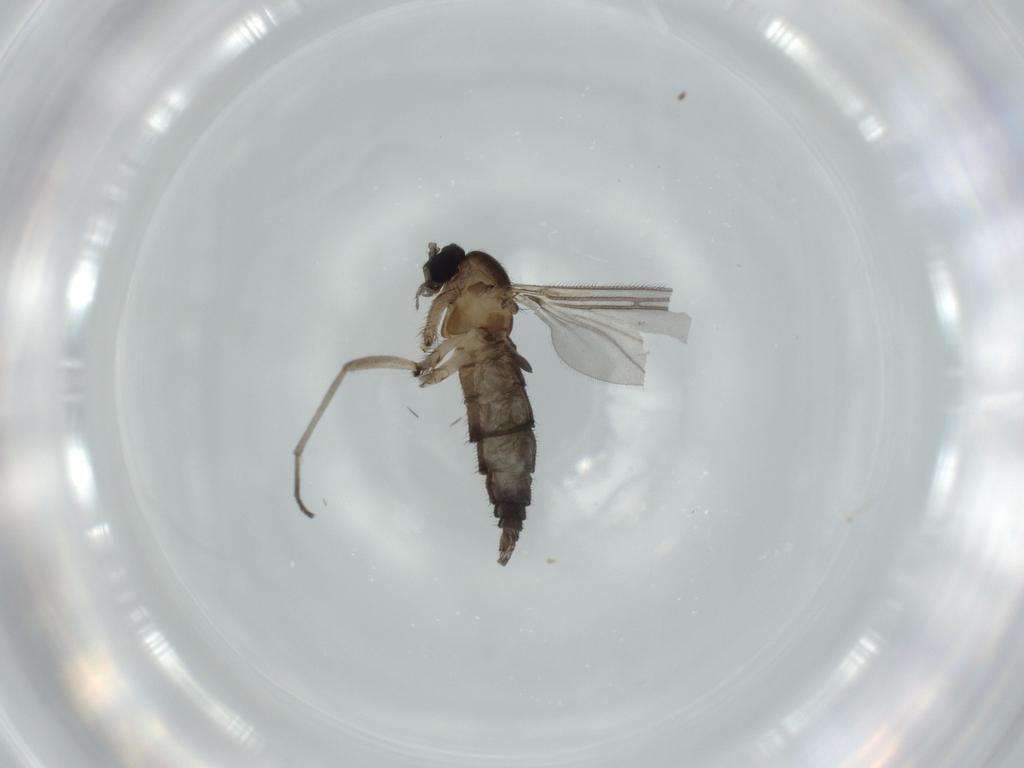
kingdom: Animalia
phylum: Arthropoda
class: Insecta
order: Diptera
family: Sciaridae
